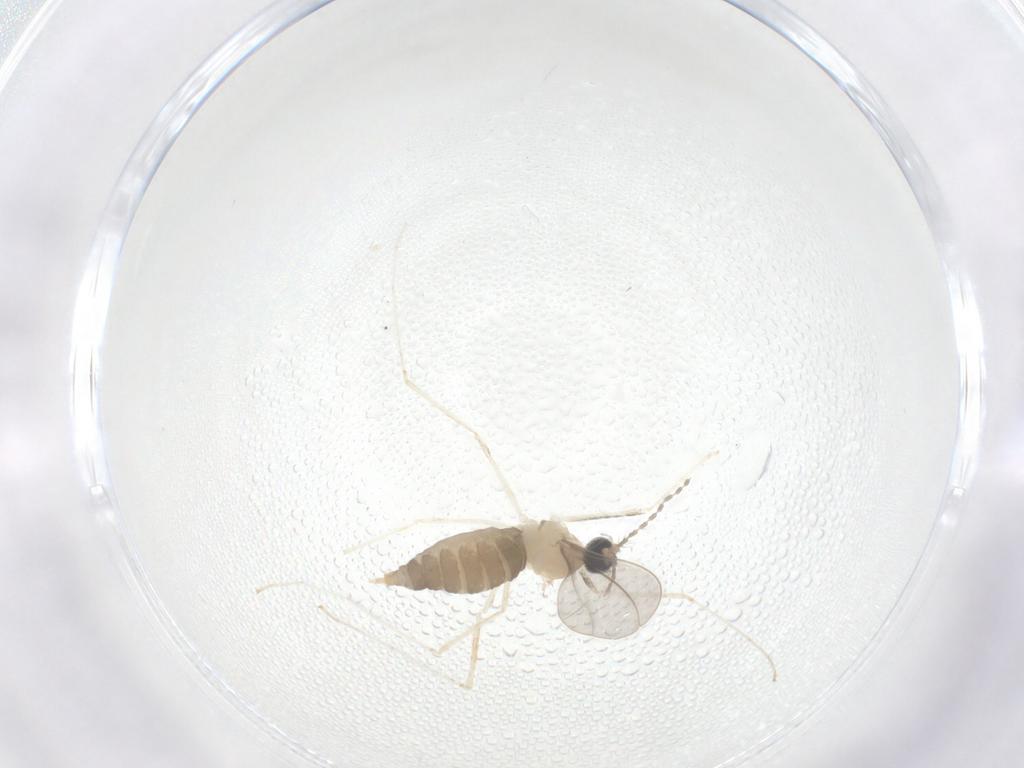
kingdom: Animalia
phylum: Arthropoda
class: Insecta
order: Diptera
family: Cecidomyiidae
